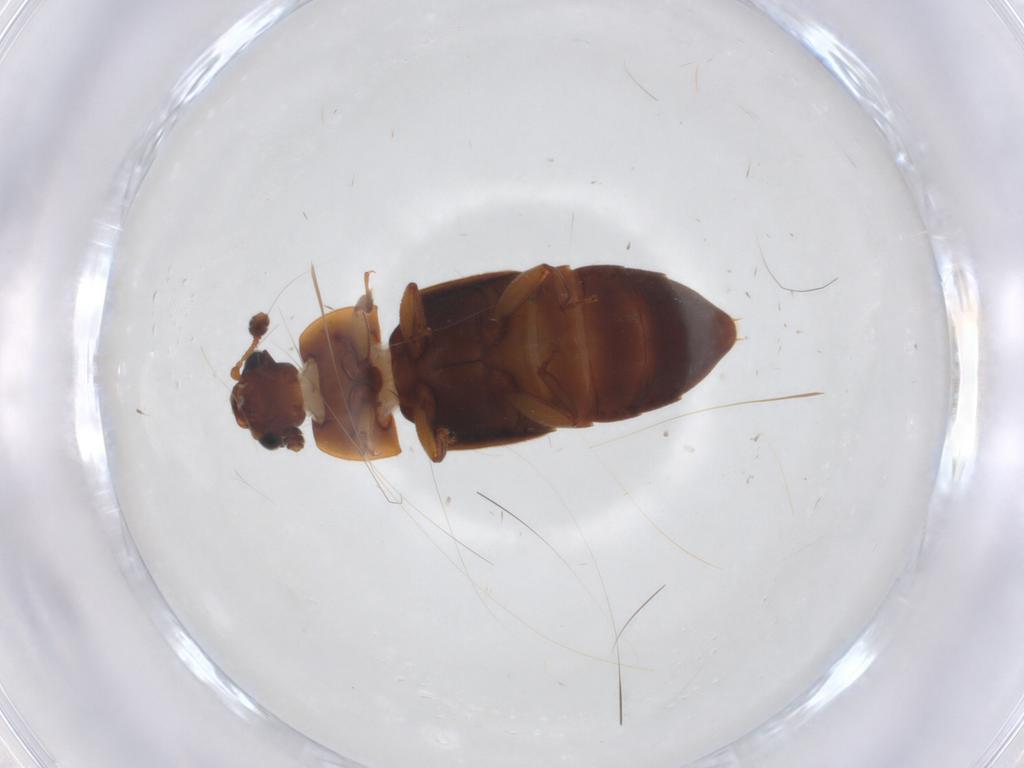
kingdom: Animalia
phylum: Arthropoda
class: Insecta
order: Coleoptera
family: Nitidulidae
